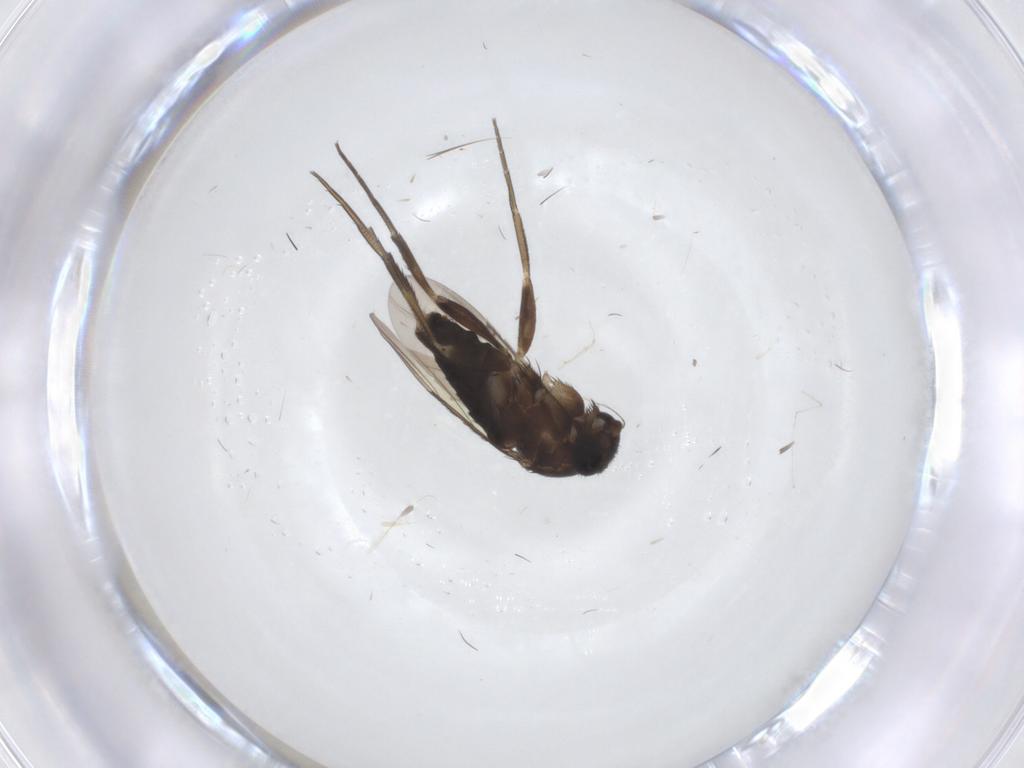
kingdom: Animalia
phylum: Arthropoda
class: Insecta
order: Diptera
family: Phoridae
